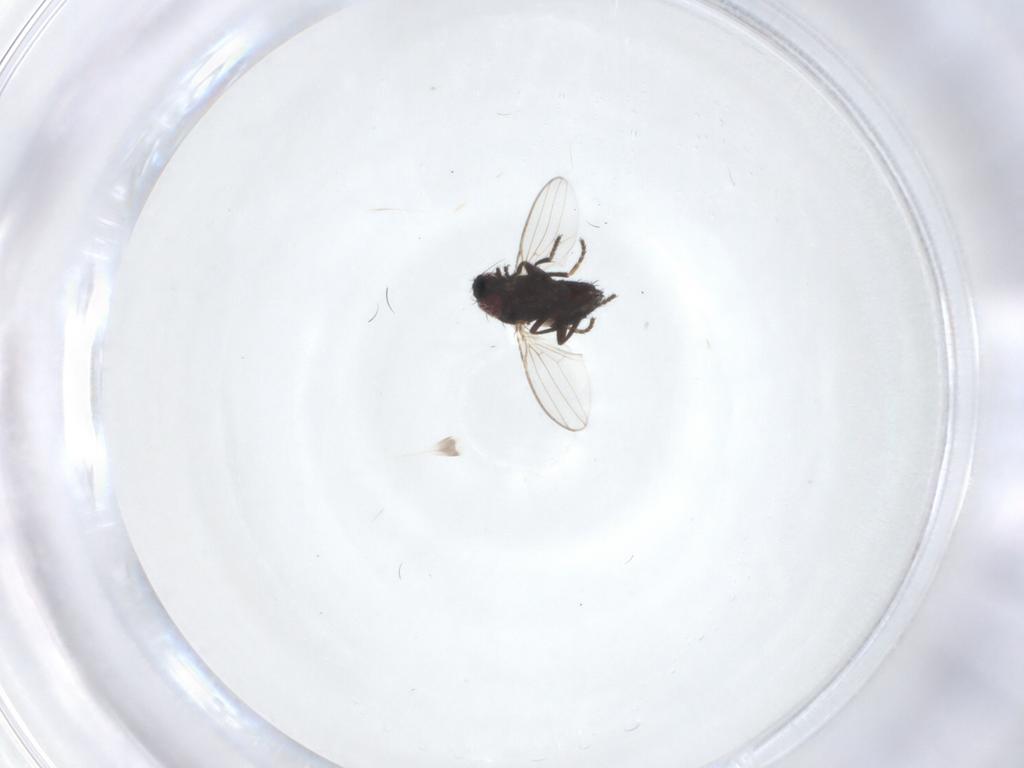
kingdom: Animalia
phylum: Arthropoda
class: Insecta
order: Diptera
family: Milichiidae
